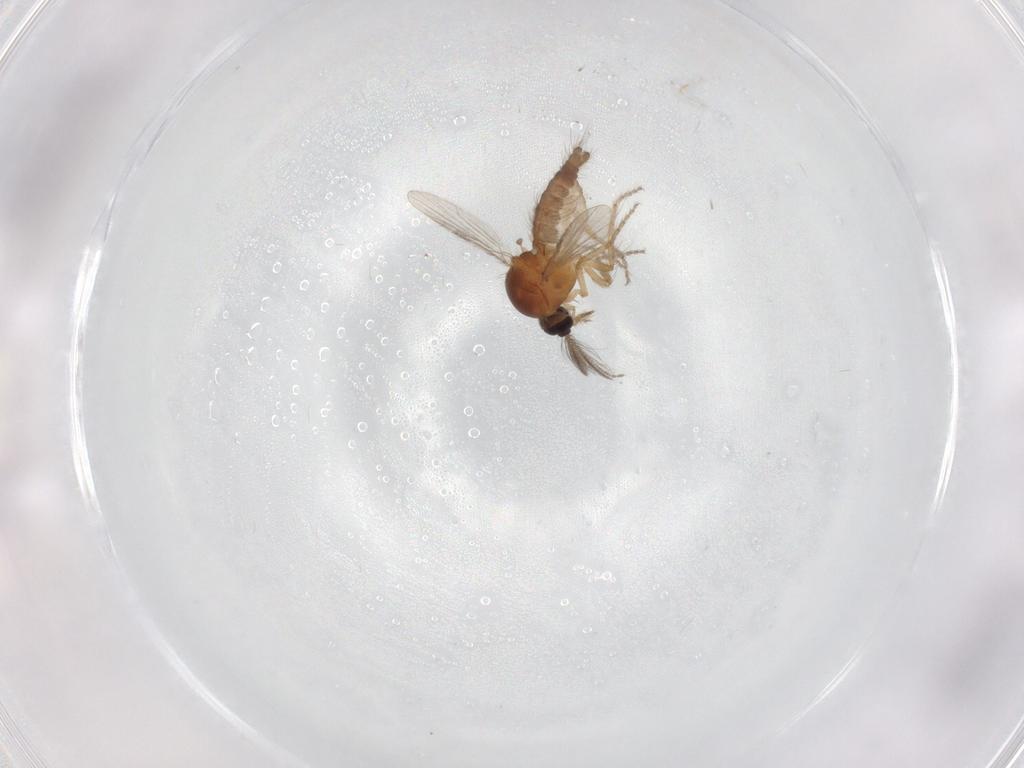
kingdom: Animalia
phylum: Arthropoda
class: Insecta
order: Diptera
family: Ceratopogonidae
